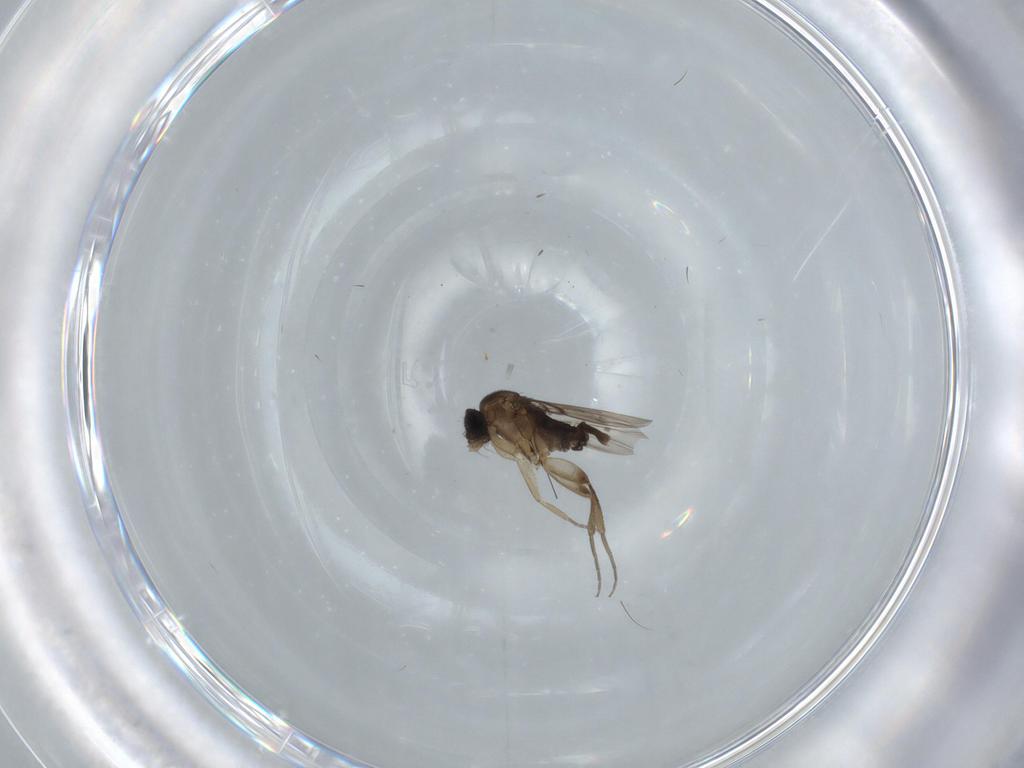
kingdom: Animalia
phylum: Arthropoda
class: Insecta
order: Diptera
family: Phoridae
